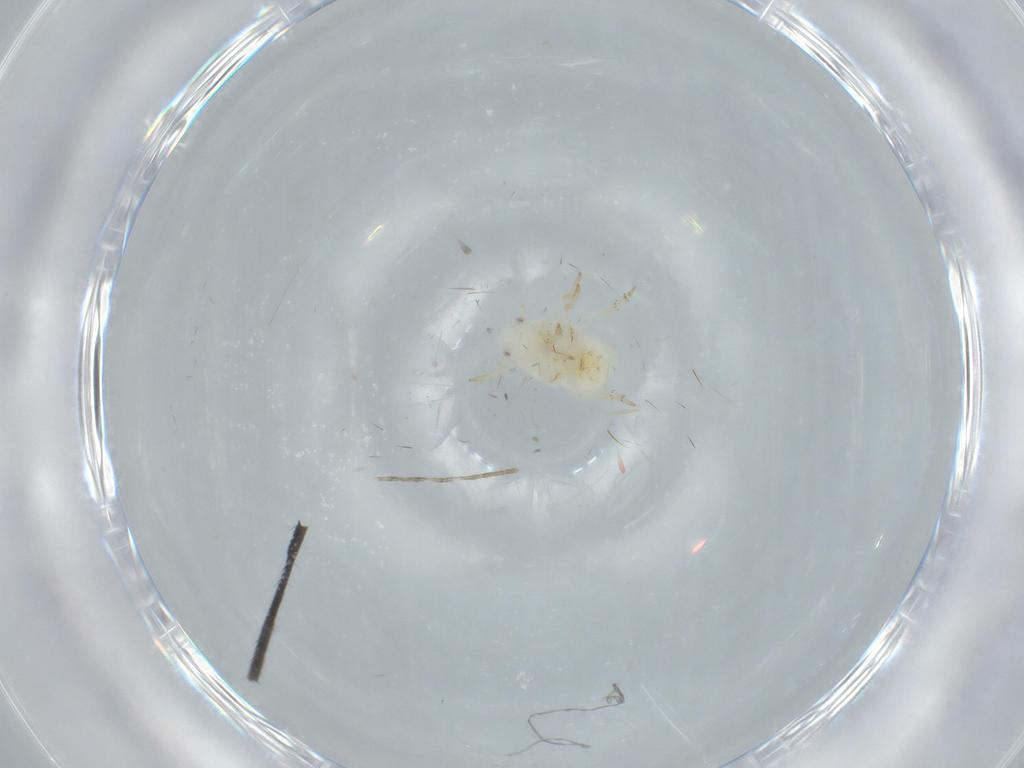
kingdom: Animalia
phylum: Arthropoda
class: Insecta
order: Hemiptera
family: Flatidae
